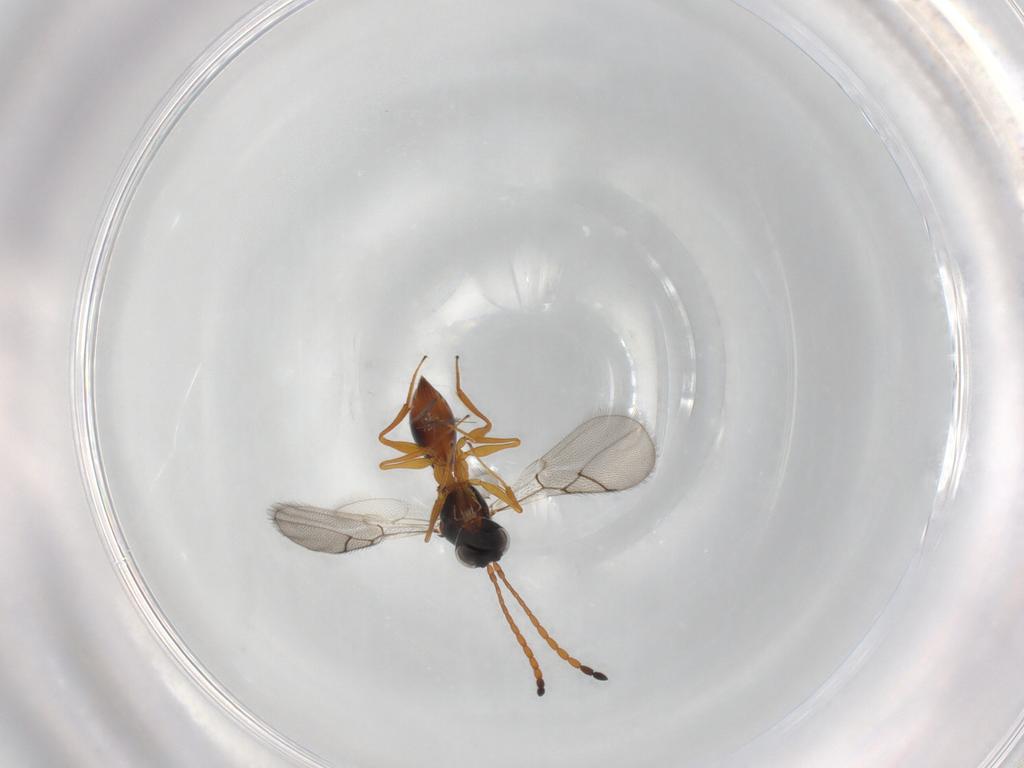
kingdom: Animalia
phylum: Arthropoda
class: Insecta
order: Hymenoptera
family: Figitidae
